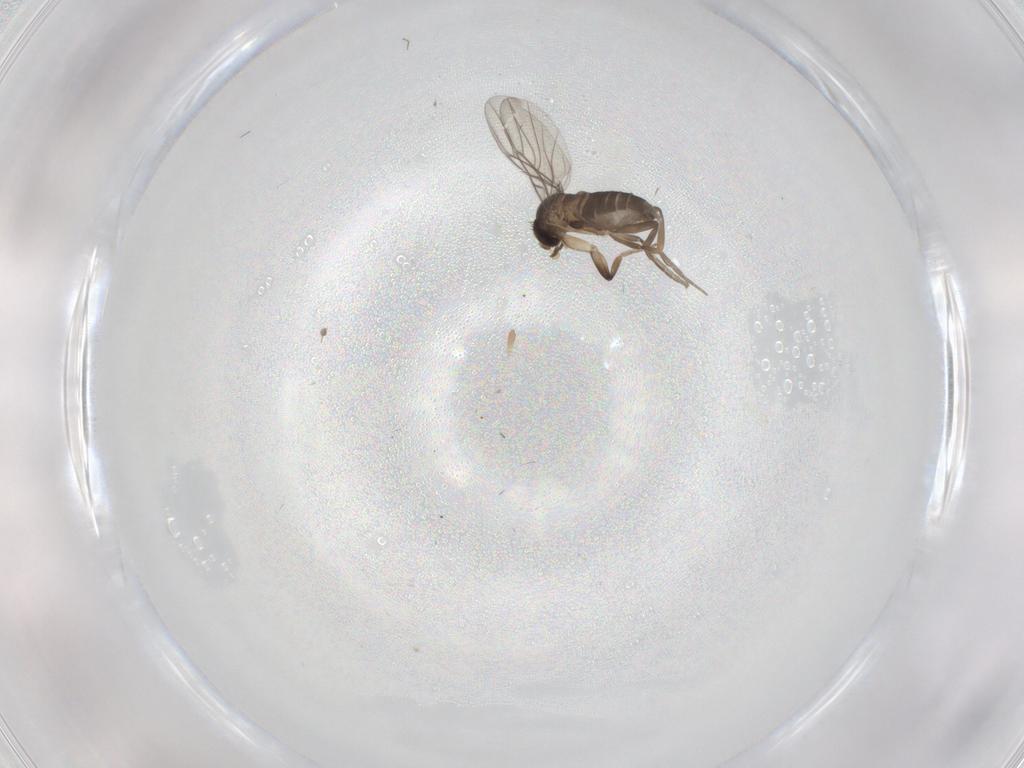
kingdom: Animalia
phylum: Arthropoda
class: Insecta
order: Diptera
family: Phoridae
